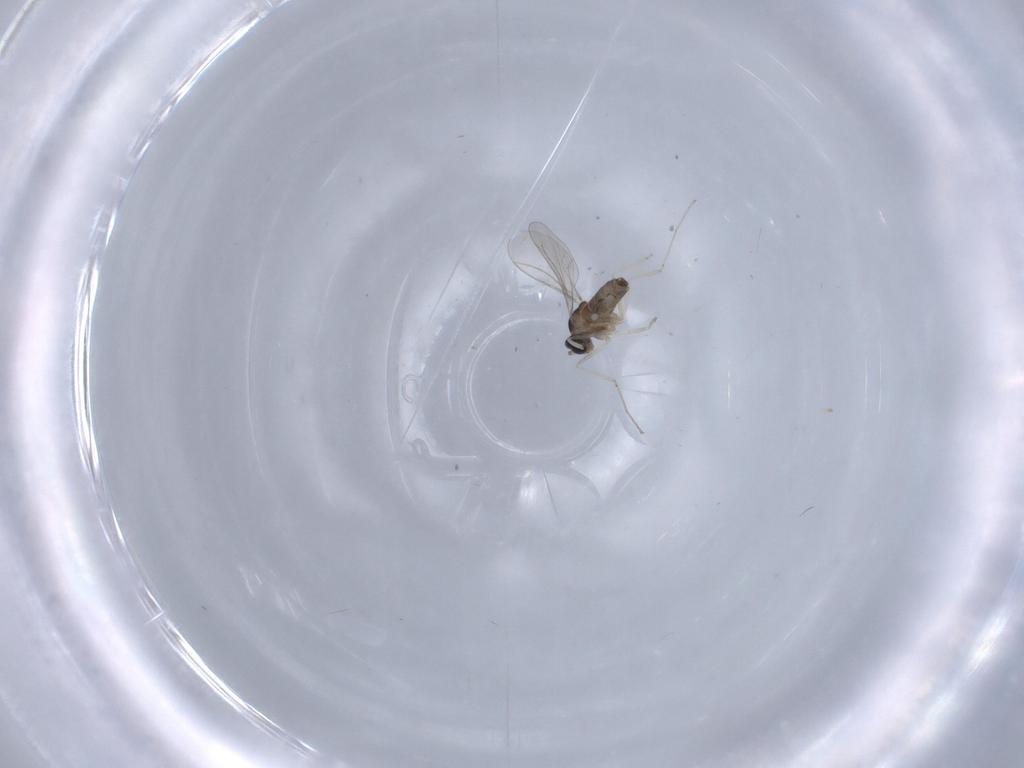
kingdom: Animalia
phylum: Arthropoda
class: Insecta
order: Diptera
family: Cecidomyiidae
